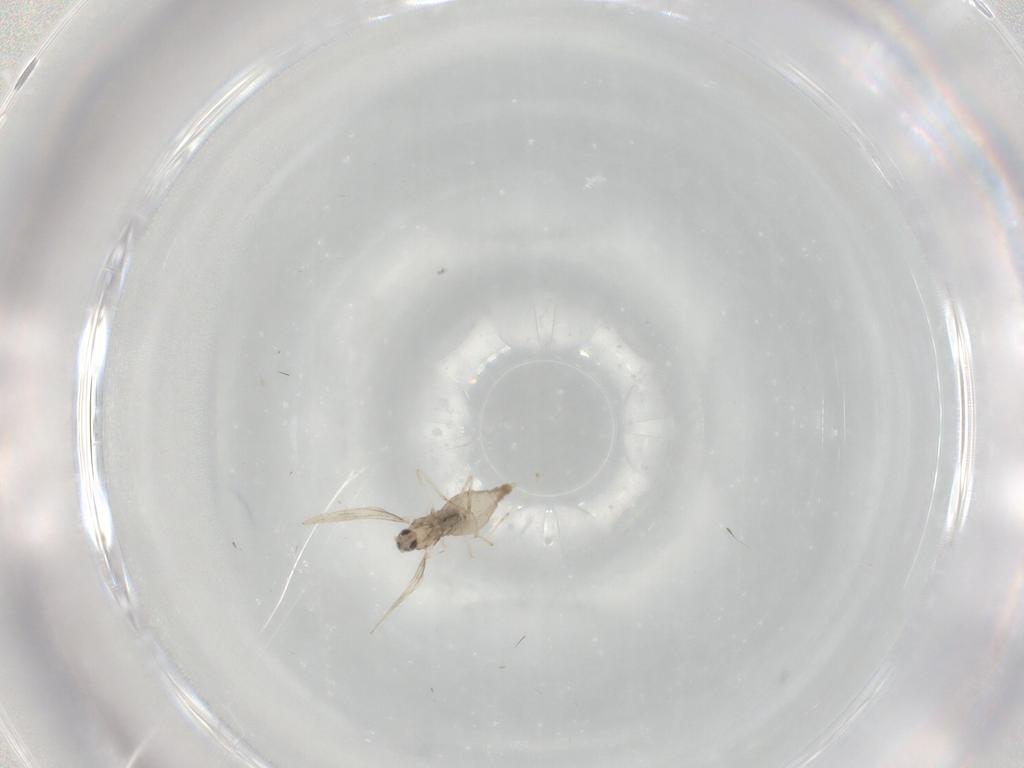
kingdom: Animalia
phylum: Arthropoda
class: Insecta
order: Diptera
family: Cecidomyiidae
